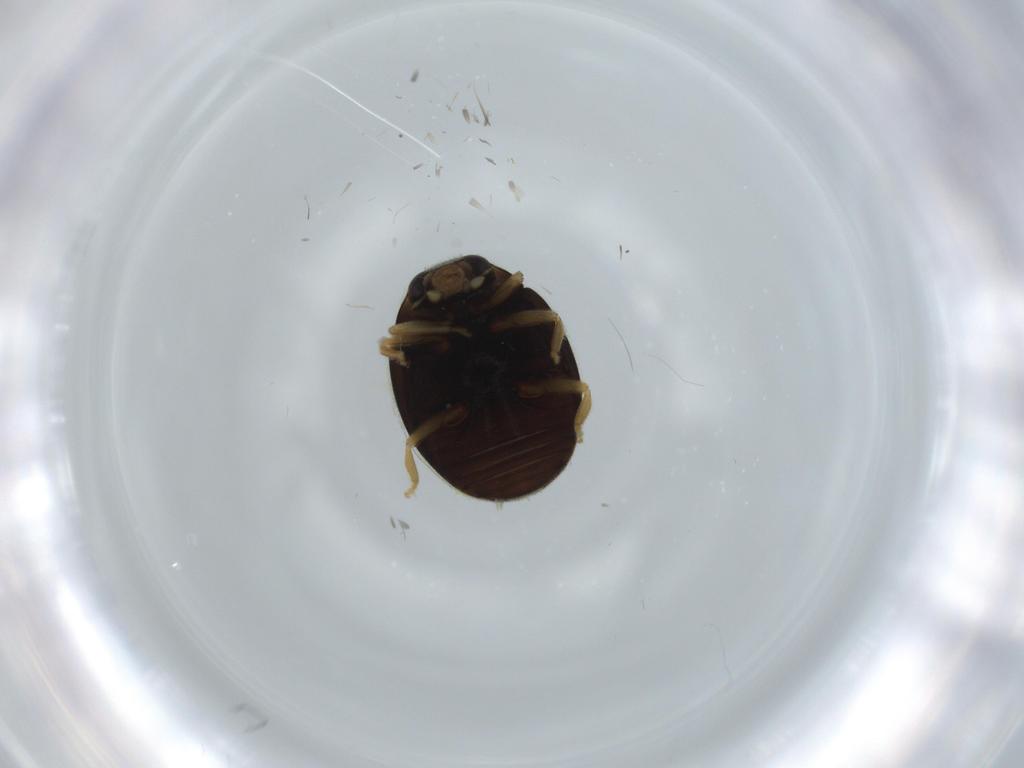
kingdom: Animalia
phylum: Arthropoda
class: Insecta
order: Coleoptera
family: Coccinellidae
